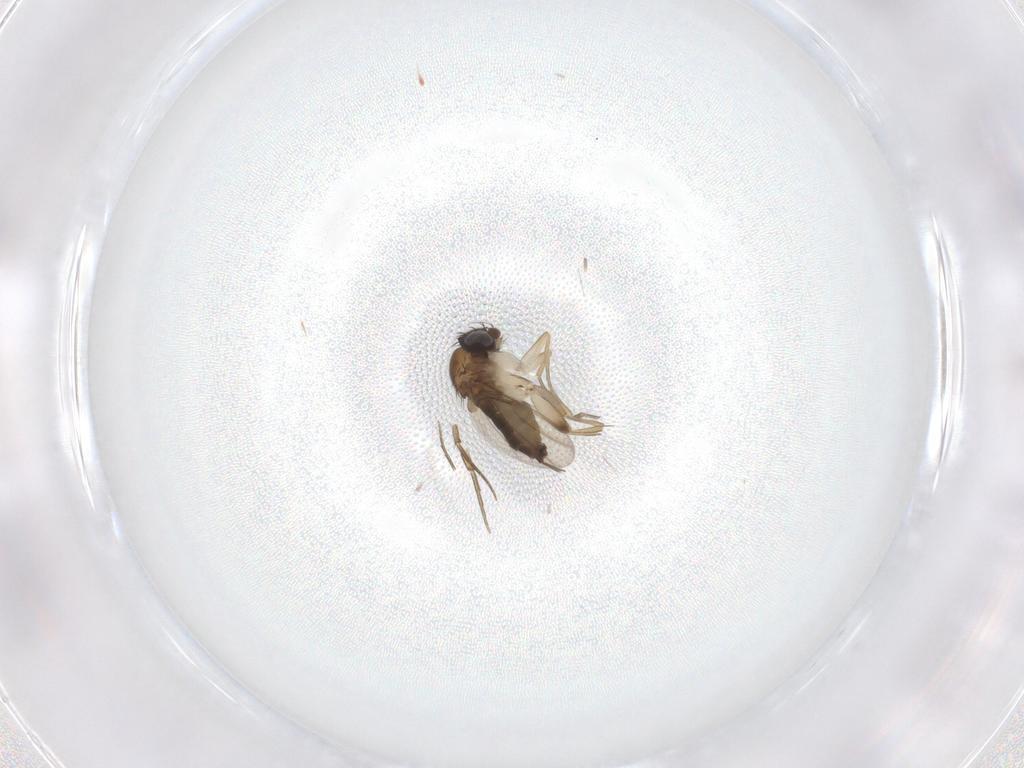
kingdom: Animalia
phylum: Arthropoda
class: Insecta
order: Diptera
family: Phoridae
